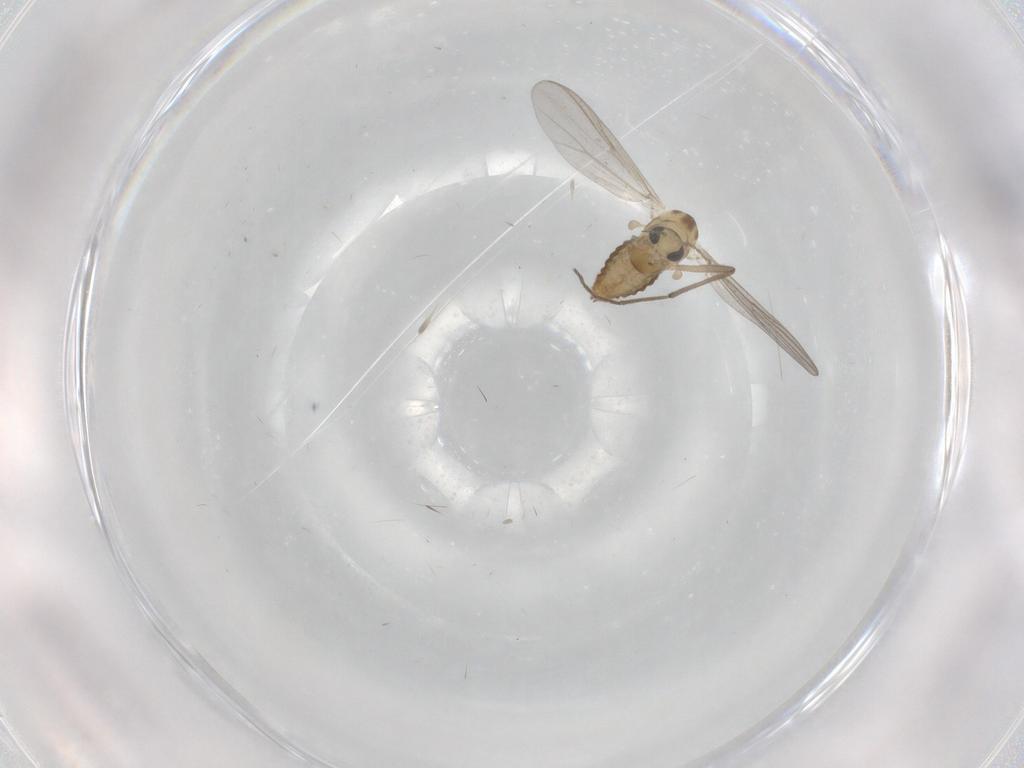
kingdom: Animalia
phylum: Arthropoda
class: Insecta
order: Diptera
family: Chironomidae
